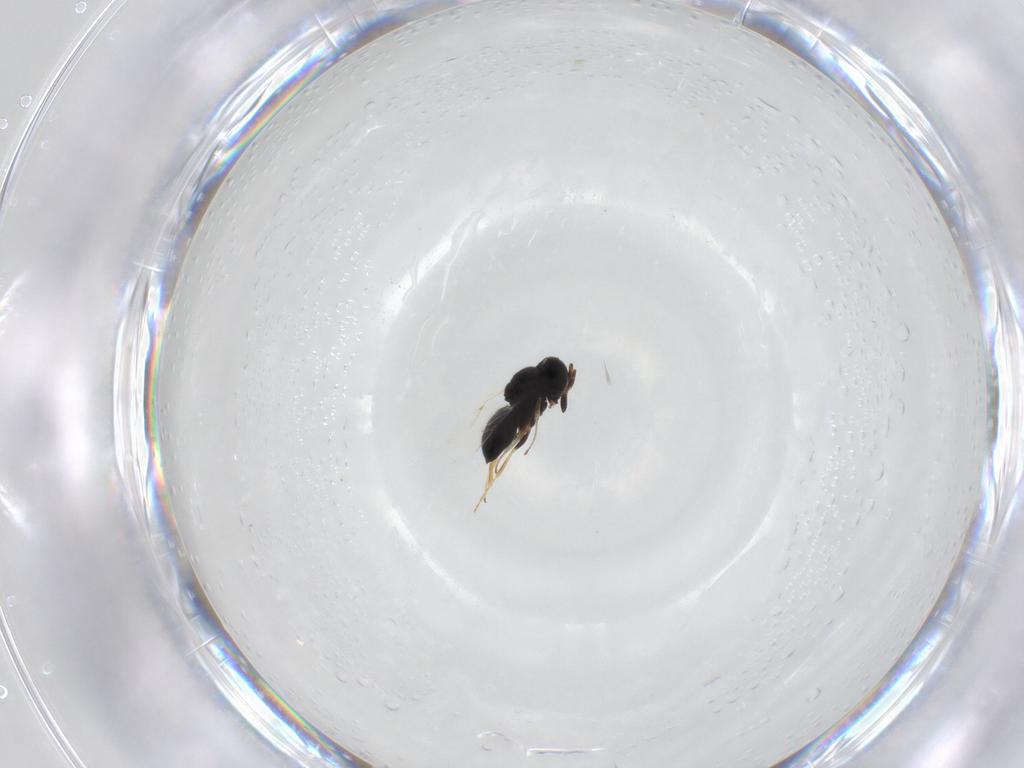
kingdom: Animalia
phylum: Arthropoda
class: Insecta
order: Hymenoptera
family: Scelionidae
